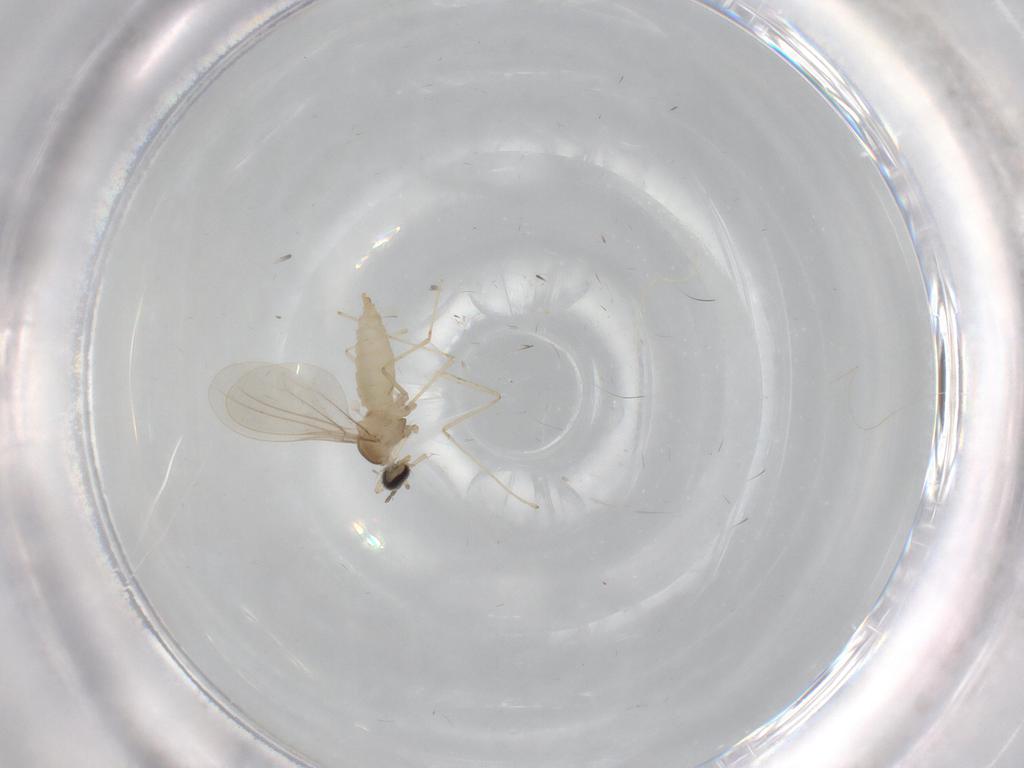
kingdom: Animalia
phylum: Arthropoda
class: Insecta
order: Diptera
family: Cecidomyiidae
